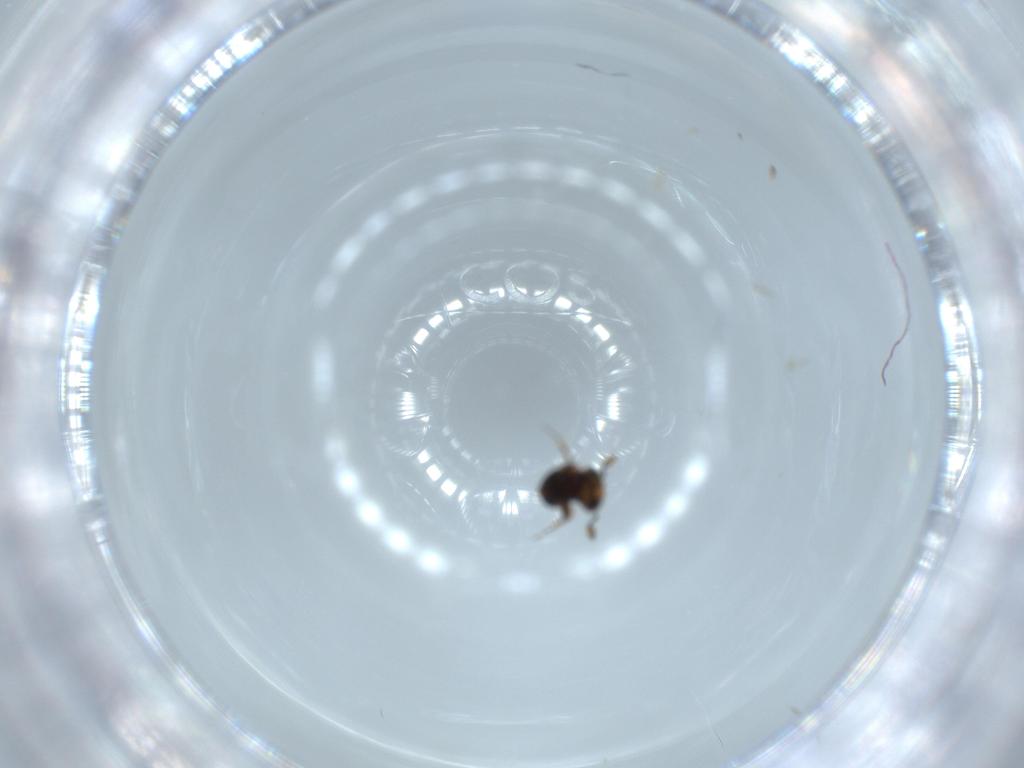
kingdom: Animalia
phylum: Arthropoda
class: Insecta
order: Hymenoptera
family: Scelionidae
